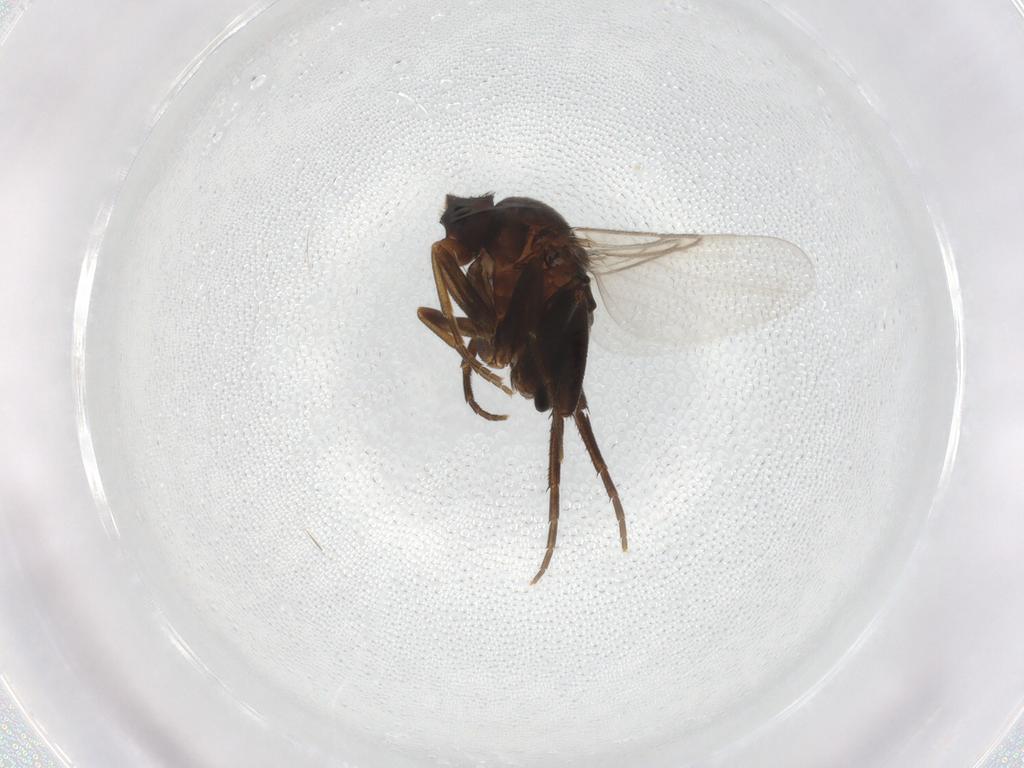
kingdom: Animalia
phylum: Arthropoda
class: Insecta
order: Diptera
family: Phoridae
